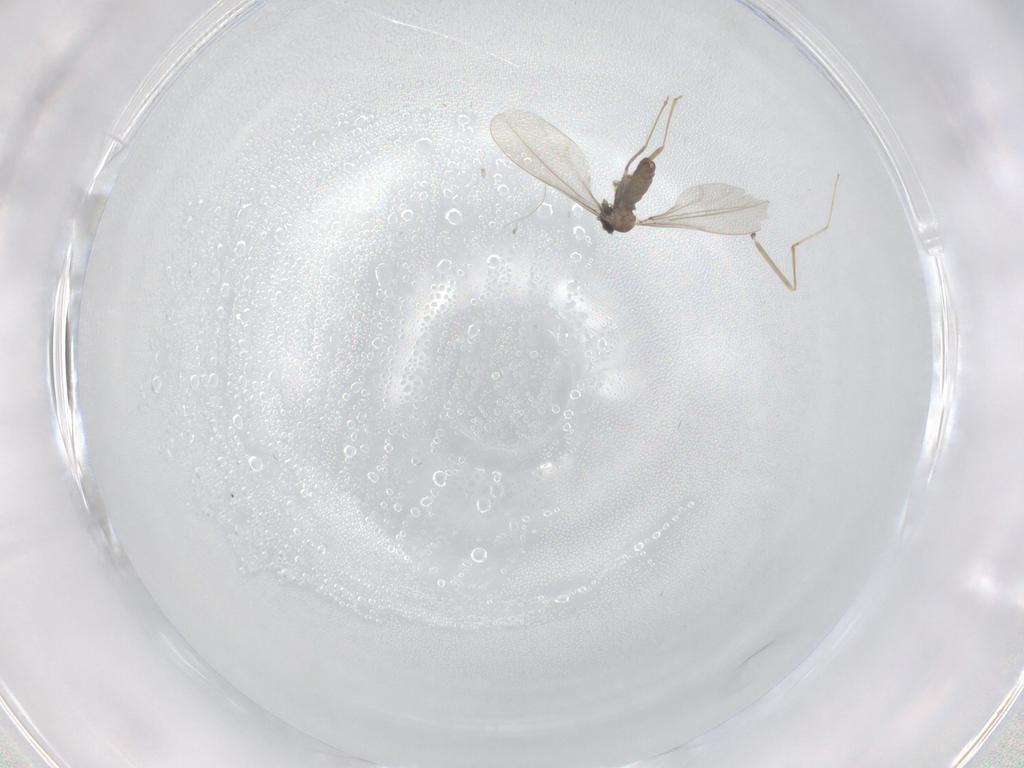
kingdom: Animalia
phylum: Arthropoda
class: Insecta
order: Diptera
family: Cecidomyiidae
